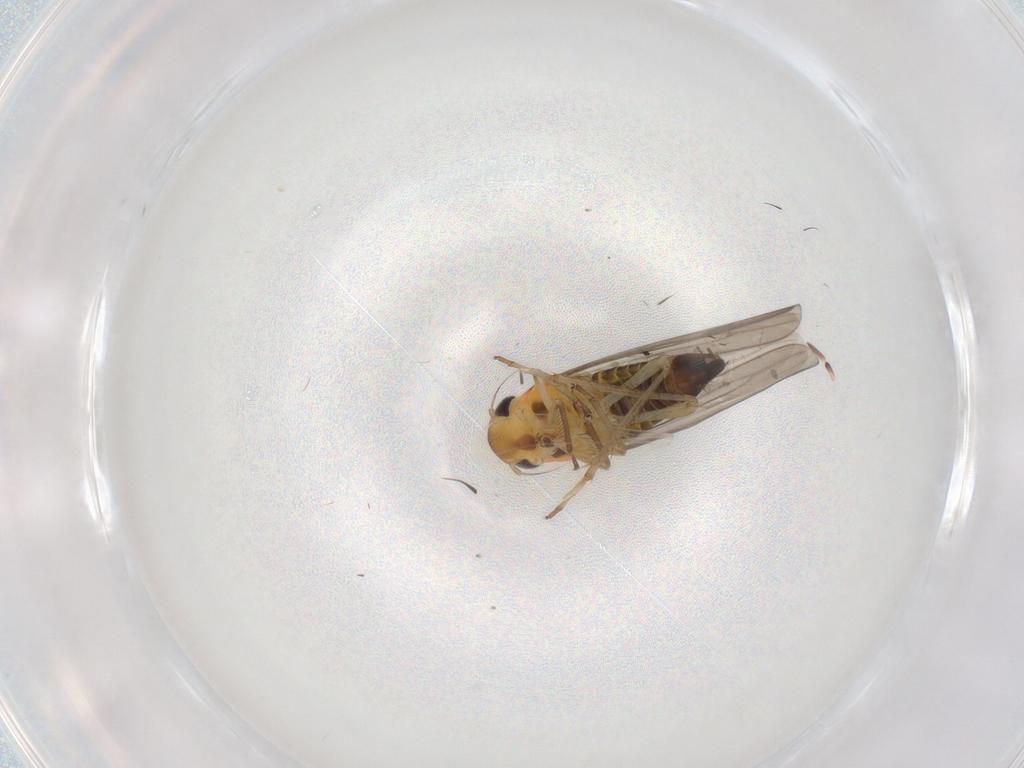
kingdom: Animalia
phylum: Arthropoda
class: Insecta
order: Hemiptera
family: Cicadellidae
